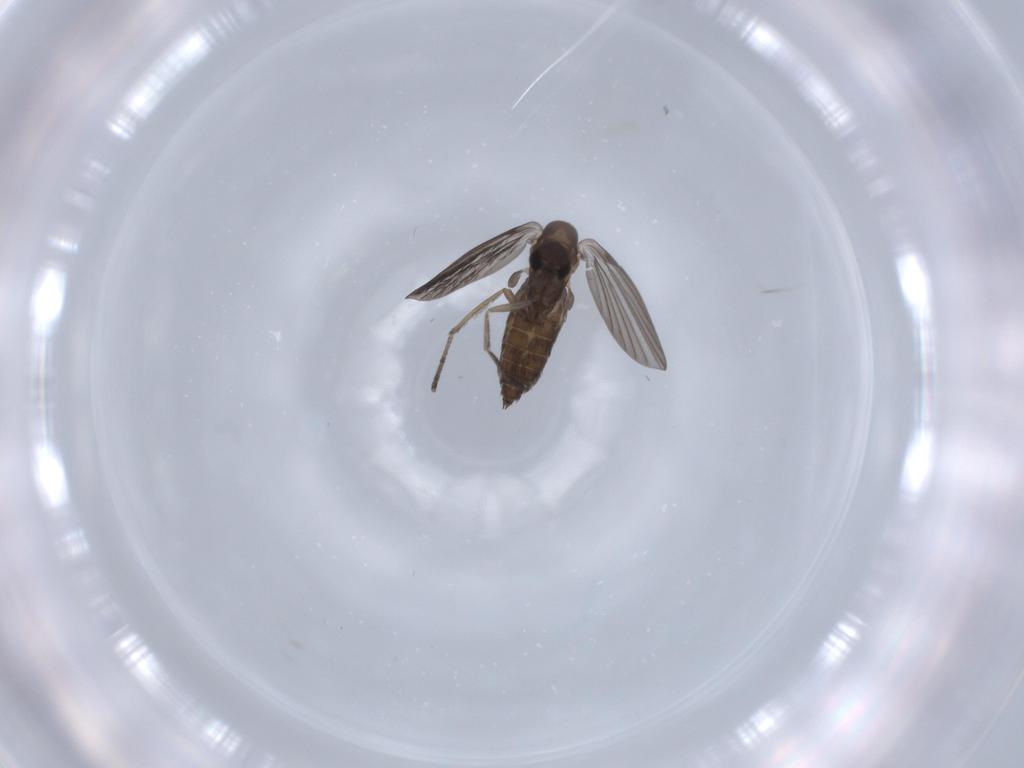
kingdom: Animalia
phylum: Arthropoda
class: Insecta
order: Diptera
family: Psychodidae
